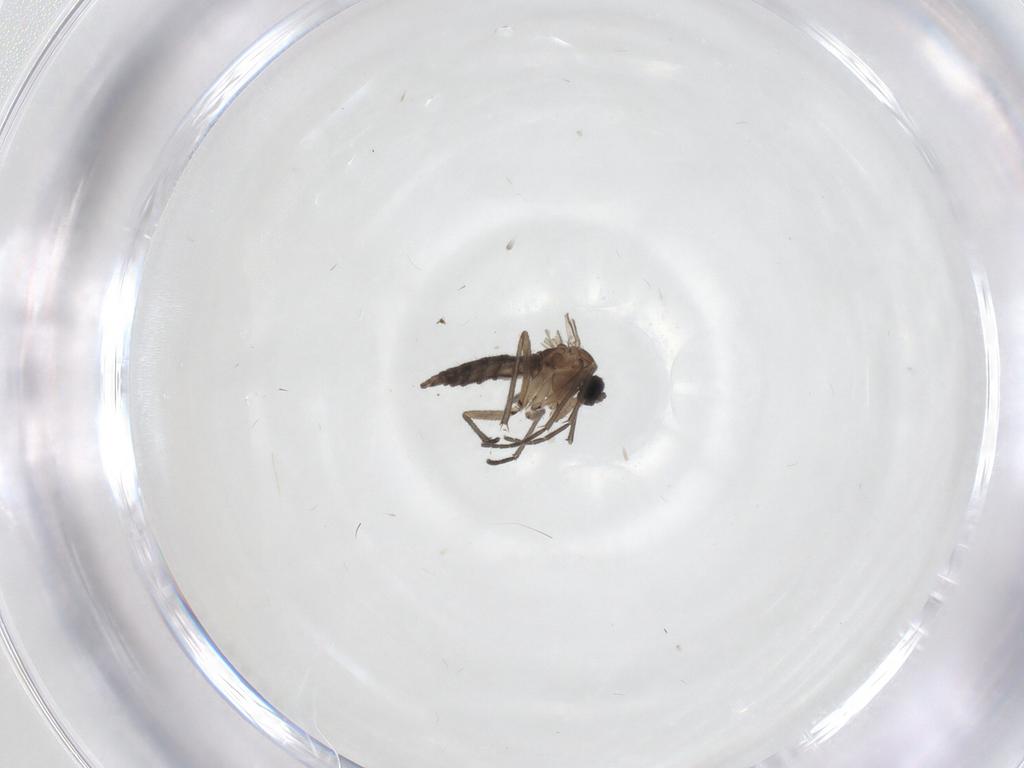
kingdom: Animalia
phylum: Arthropoda
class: Insecta
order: Diptera
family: Sciaridae
